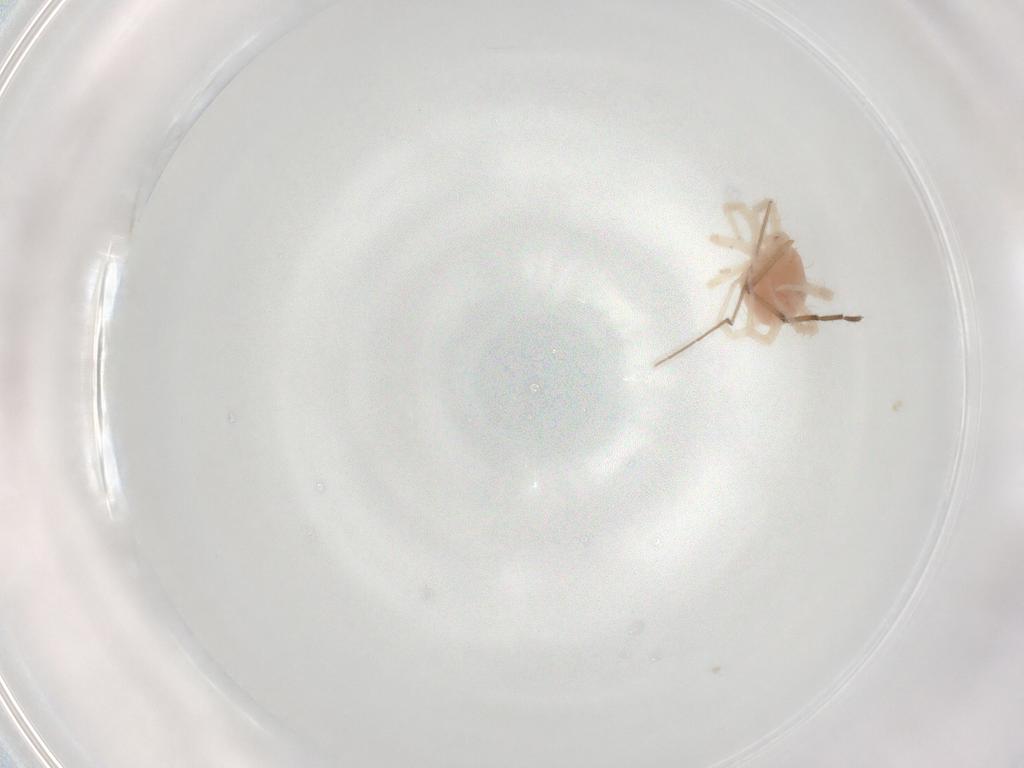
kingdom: Animalia
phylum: Arthropoda
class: Arachnida
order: Trombidiformes
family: Anystidae
